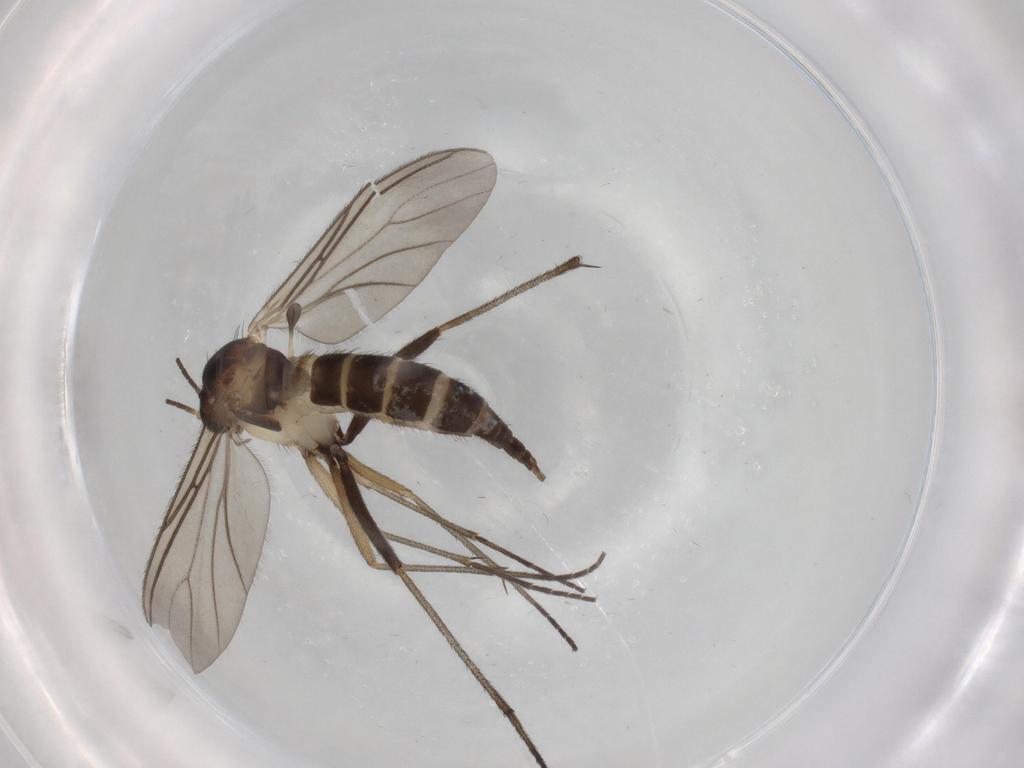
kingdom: Animalia
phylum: Arthropoda
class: Insecta
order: Diptera
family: Sciaridae
